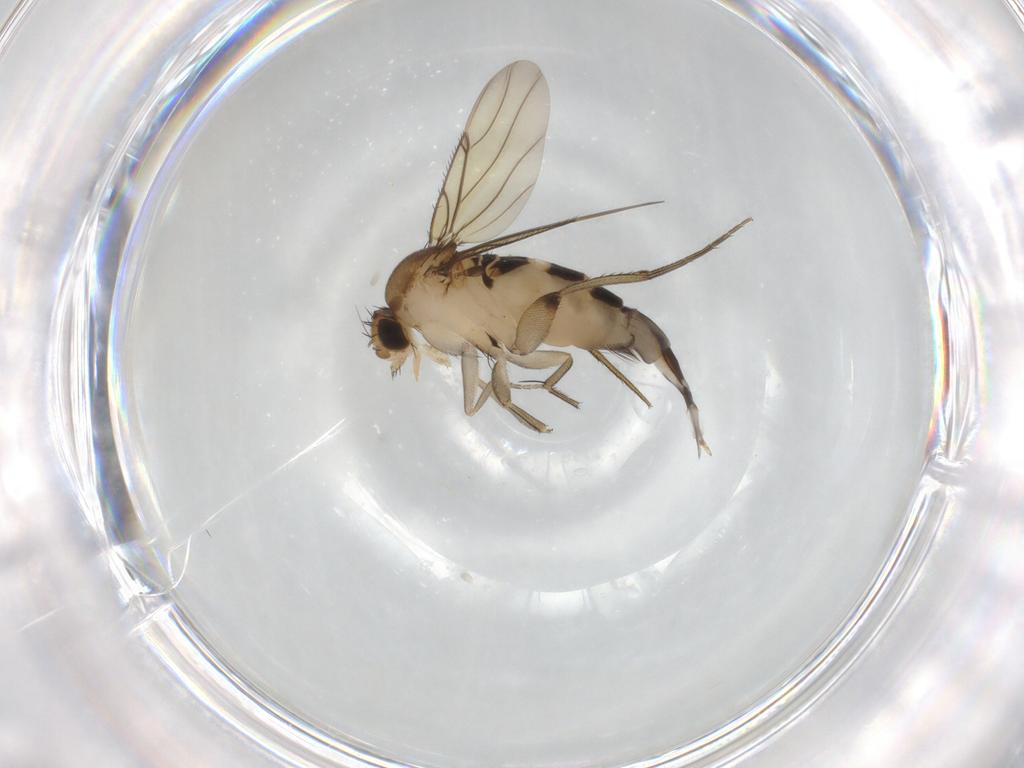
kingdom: Animalia
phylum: Arthropoda
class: Insecta
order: Diptera
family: Phoridae
